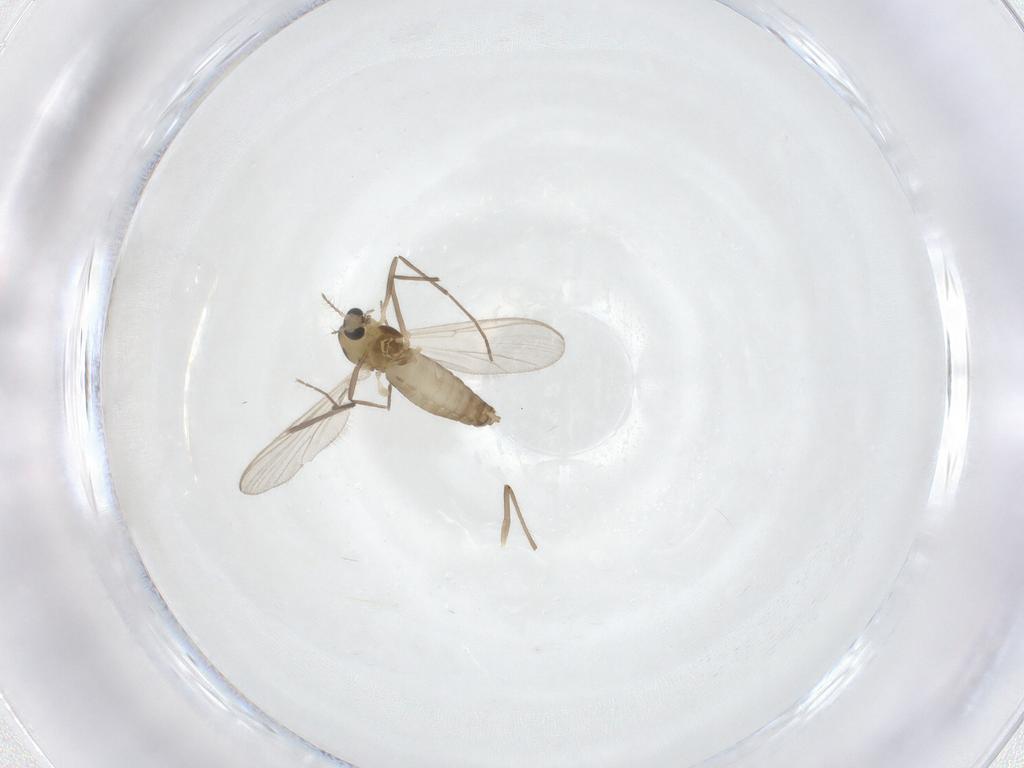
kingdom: Animalia
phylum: Arthropoda
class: Insecta
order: Diptera
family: Chironomidae
